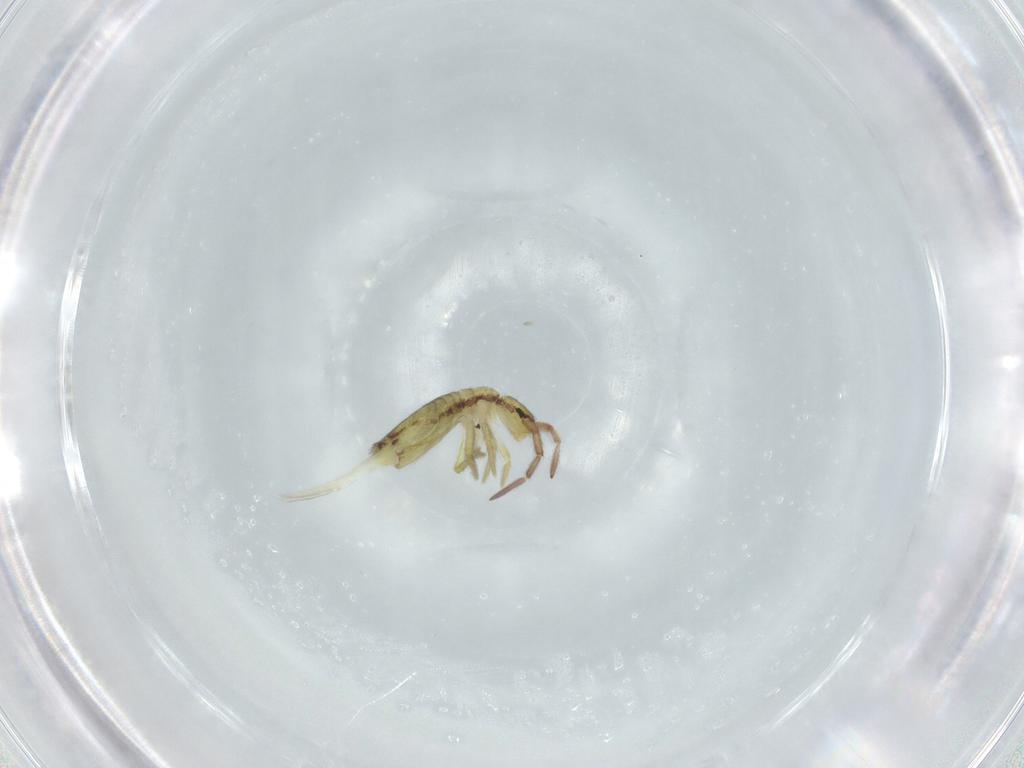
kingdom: Animalia
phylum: Arthropoda
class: Collembola
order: Entomobryomorpha
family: Entomobryidae
